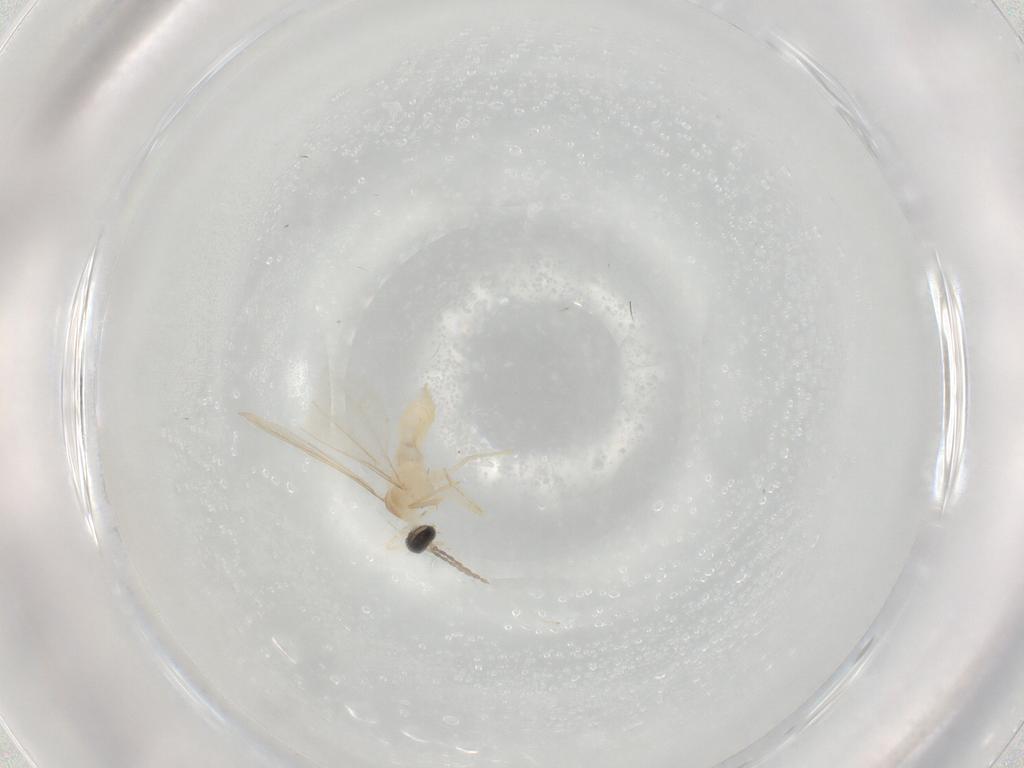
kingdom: Animalia
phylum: Arthropoda
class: Insecta
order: Diptera
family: Cecidomyiidae
